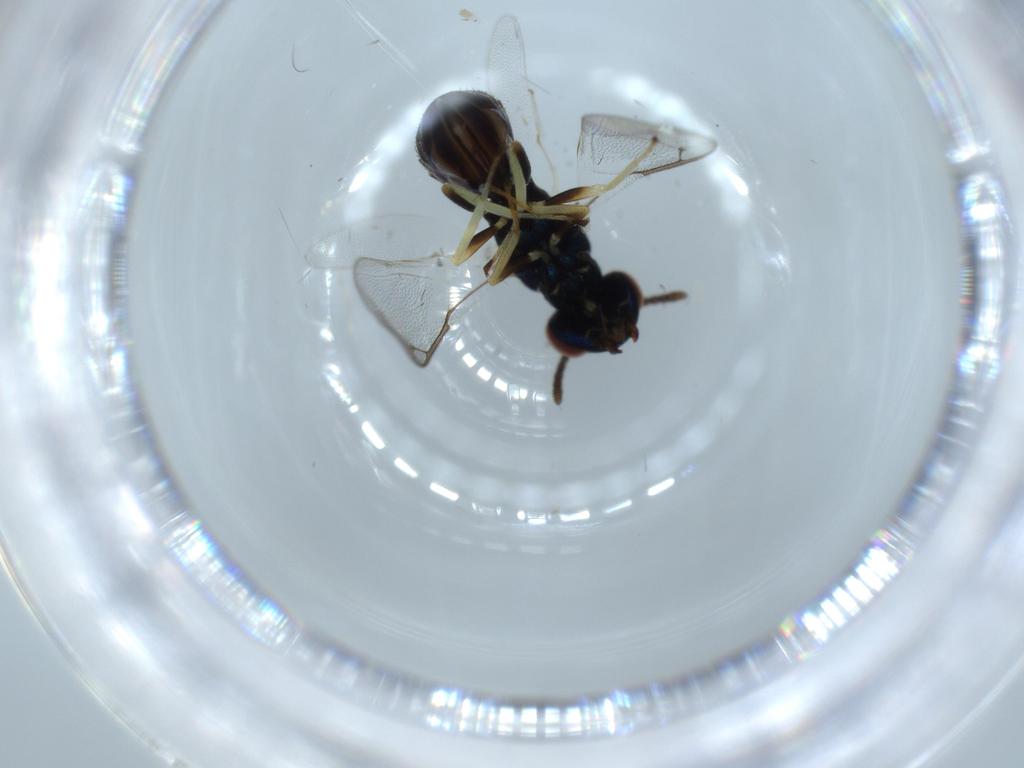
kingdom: Animalia
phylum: Arthropoda
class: Insecta
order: Hymenoptera
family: Pteromalidae
